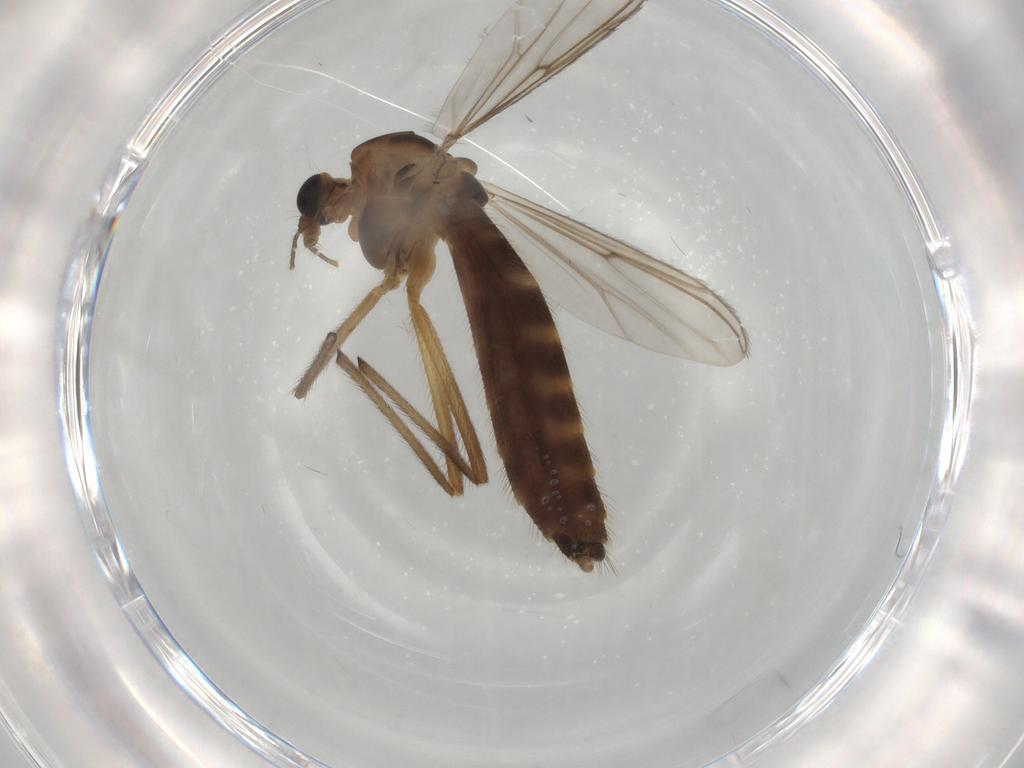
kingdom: Animalia
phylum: Arthropoda
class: Insecta
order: Diptera
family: Chironomidae
